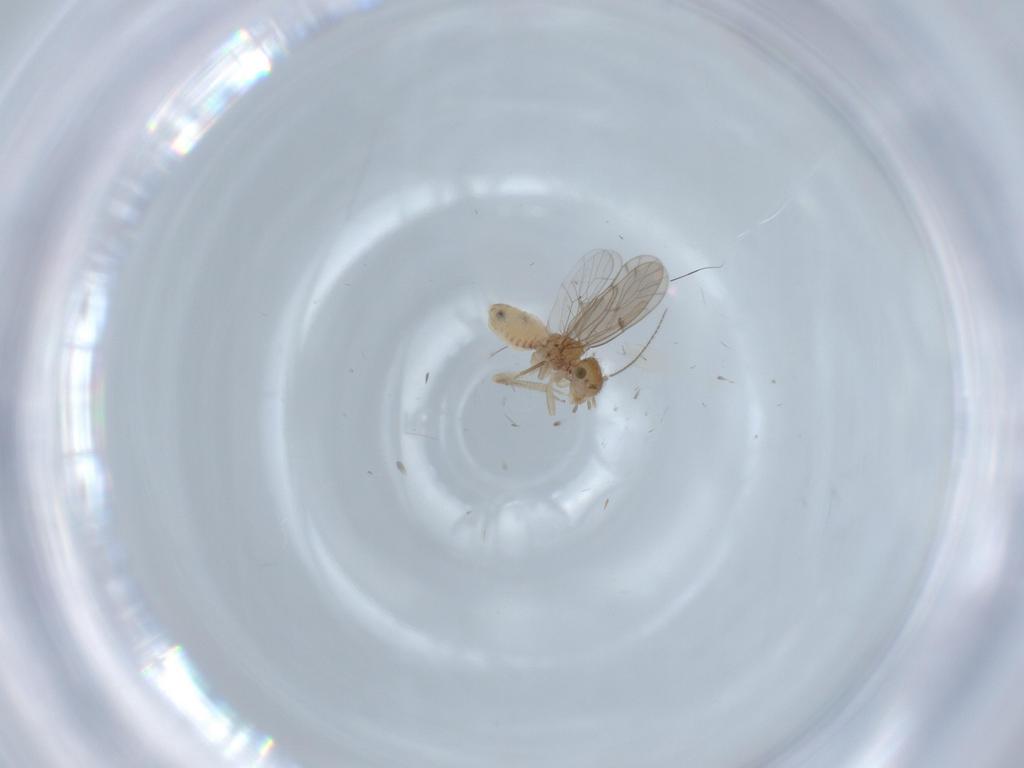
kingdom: Animalia
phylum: Arthropoda
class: Insecta
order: Psocodea
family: Ectopsocidae
